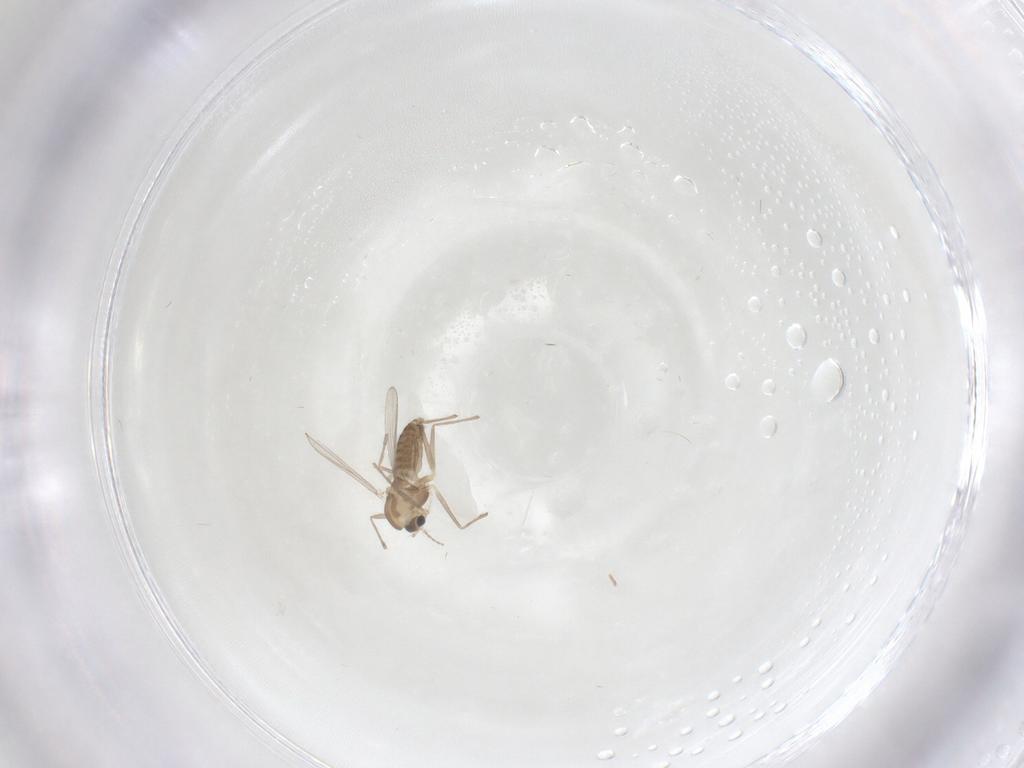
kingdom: Animalia
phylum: Arthropoda
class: Insecta
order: Diptera
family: Chironomidae
